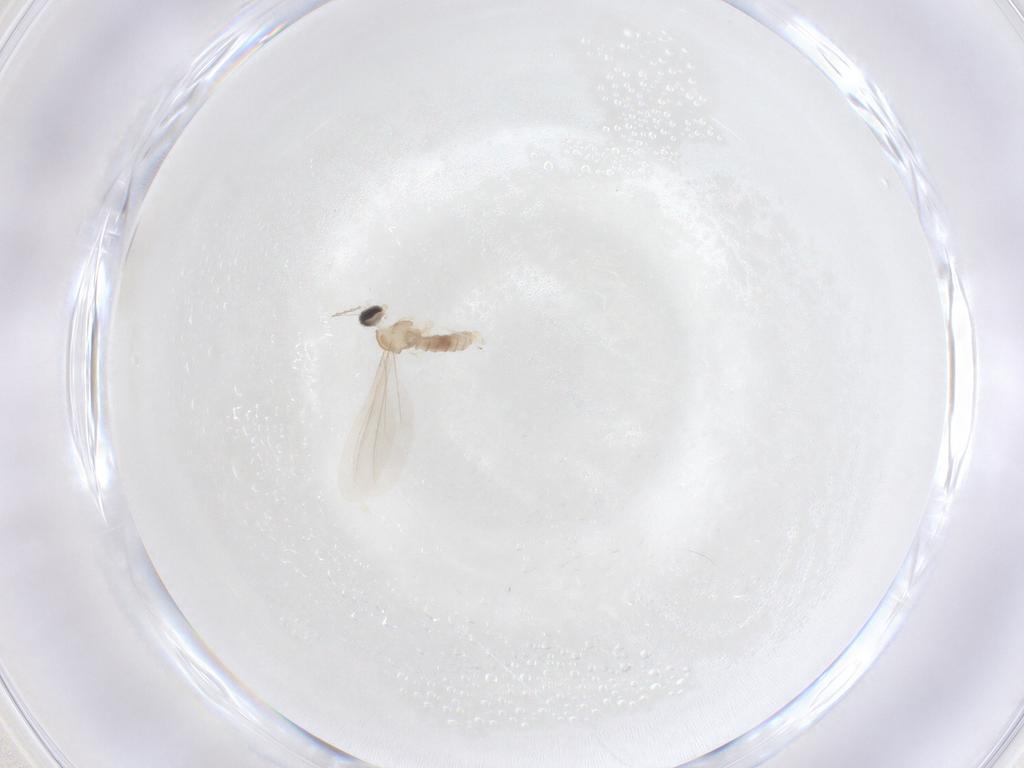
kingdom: Animalia
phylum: Arthropoda
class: Insecta
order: Diptera
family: Cecidomyiidae
